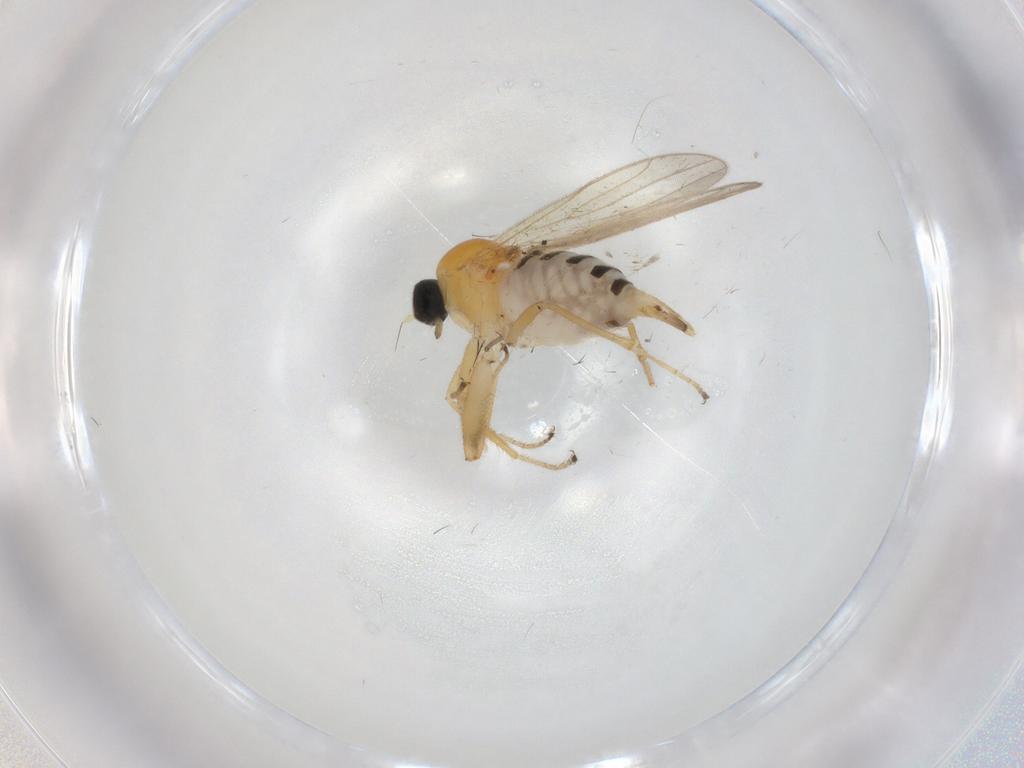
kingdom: Animalia
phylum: Arthropoda
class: Insecta
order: Diptera
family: Hybotidae
